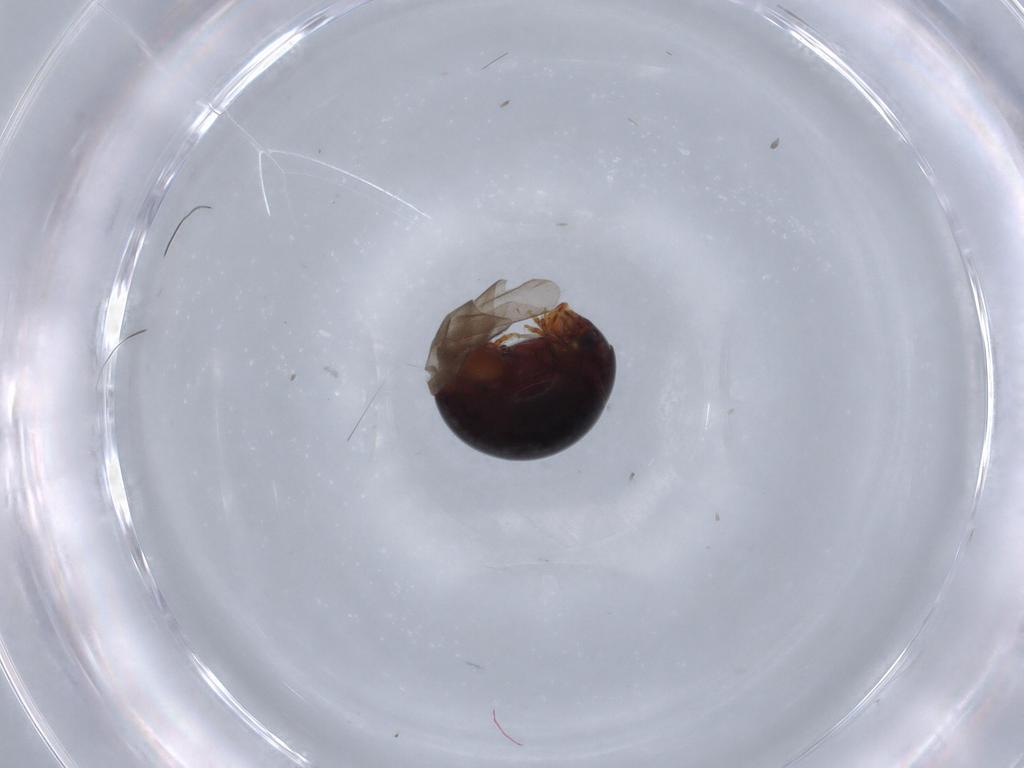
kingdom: Animalia
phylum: Arthropoda
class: Insecta
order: Coleoptera
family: Chrysomelidae
